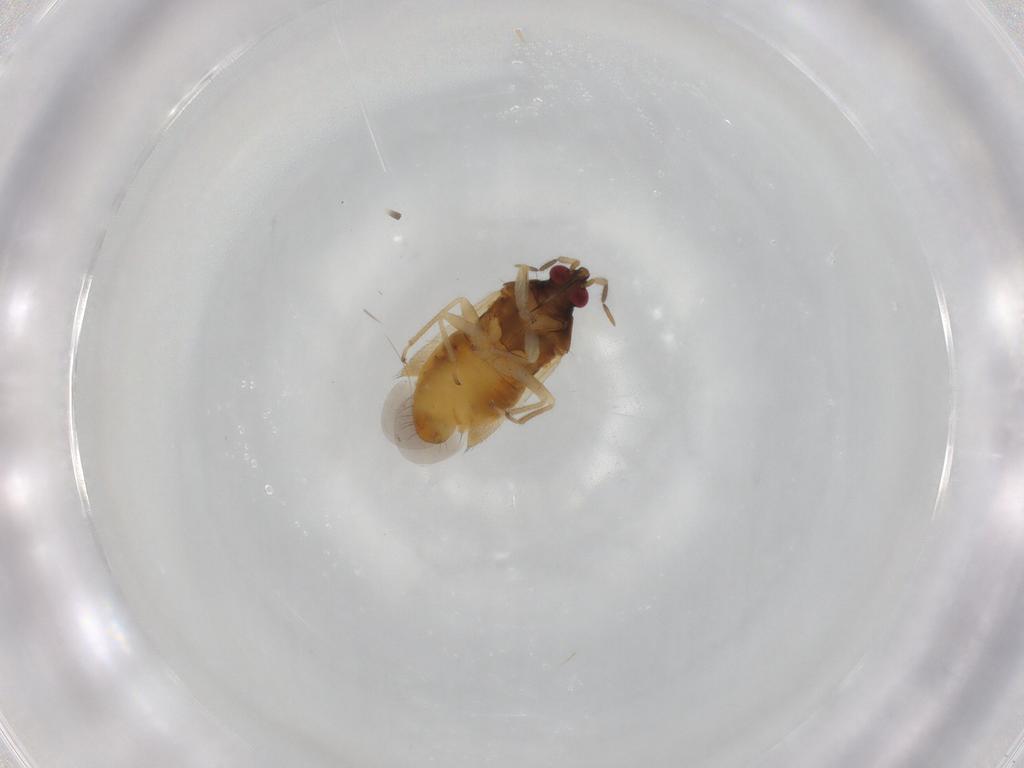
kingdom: Animalia
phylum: Arthropoda
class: Insecta
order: Hemiptera
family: Anthocoridae
